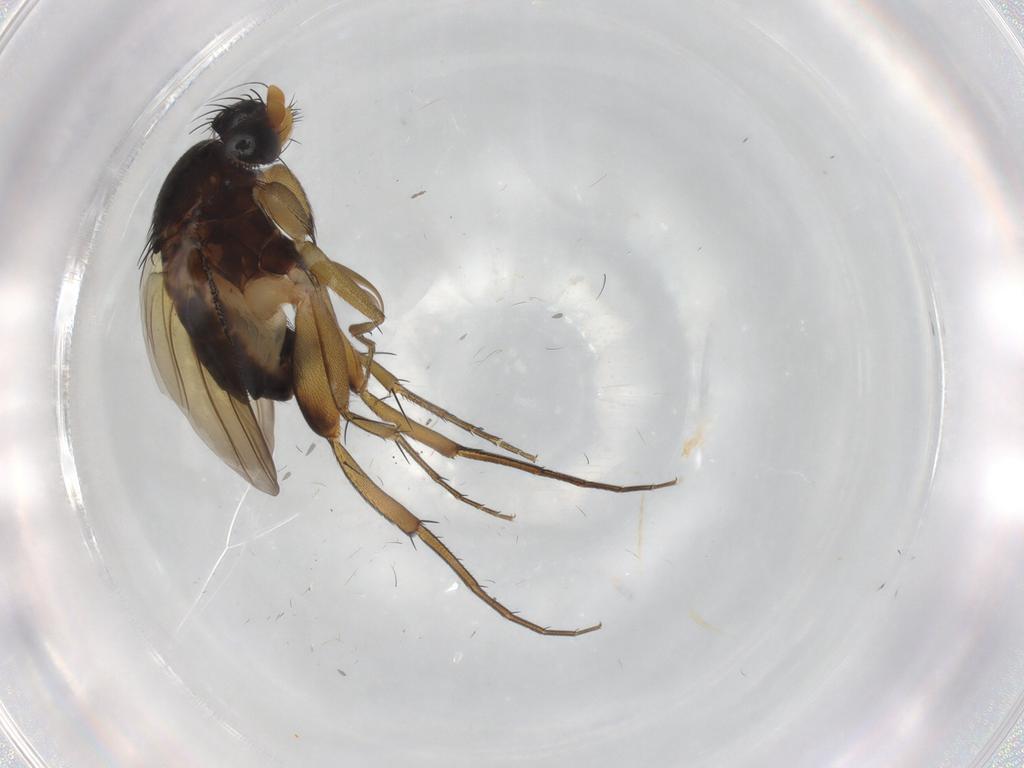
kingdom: Animalia
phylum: Arthropoda
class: Insecta
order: Diptera
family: Phoridae
